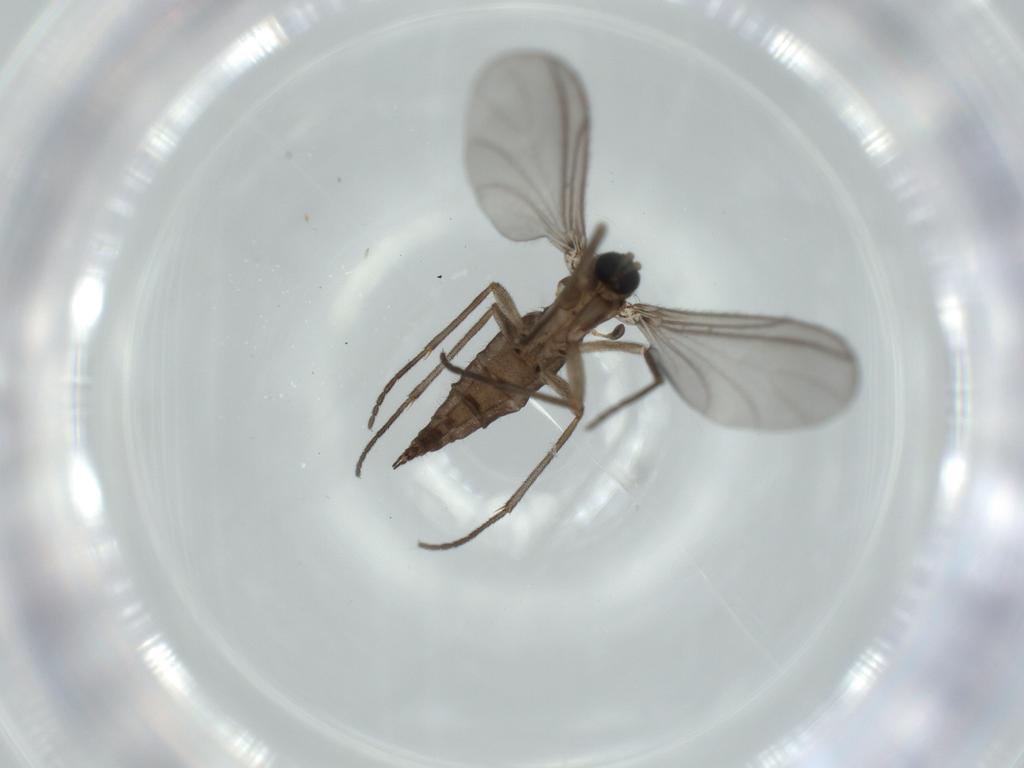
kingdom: Animalia
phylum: Arthropoda
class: Insecta
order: Diptera
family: Sciaridae
